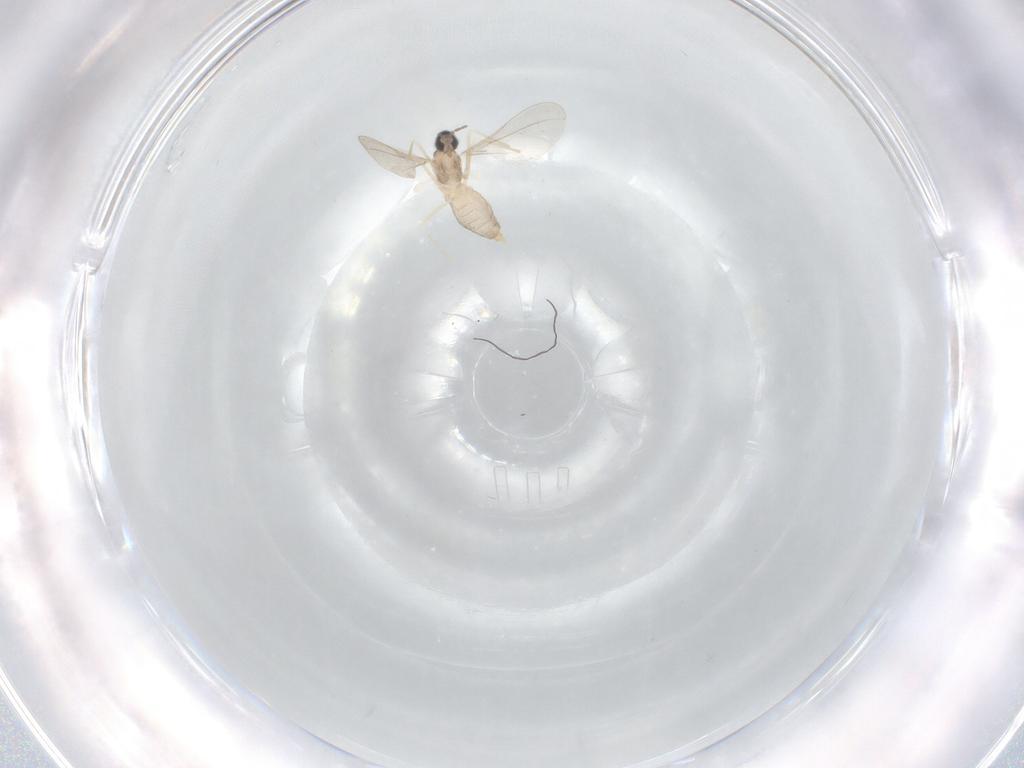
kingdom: Animalia
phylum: Arthropoda
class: Insecta
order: Diptera
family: Cecidomyiidae
